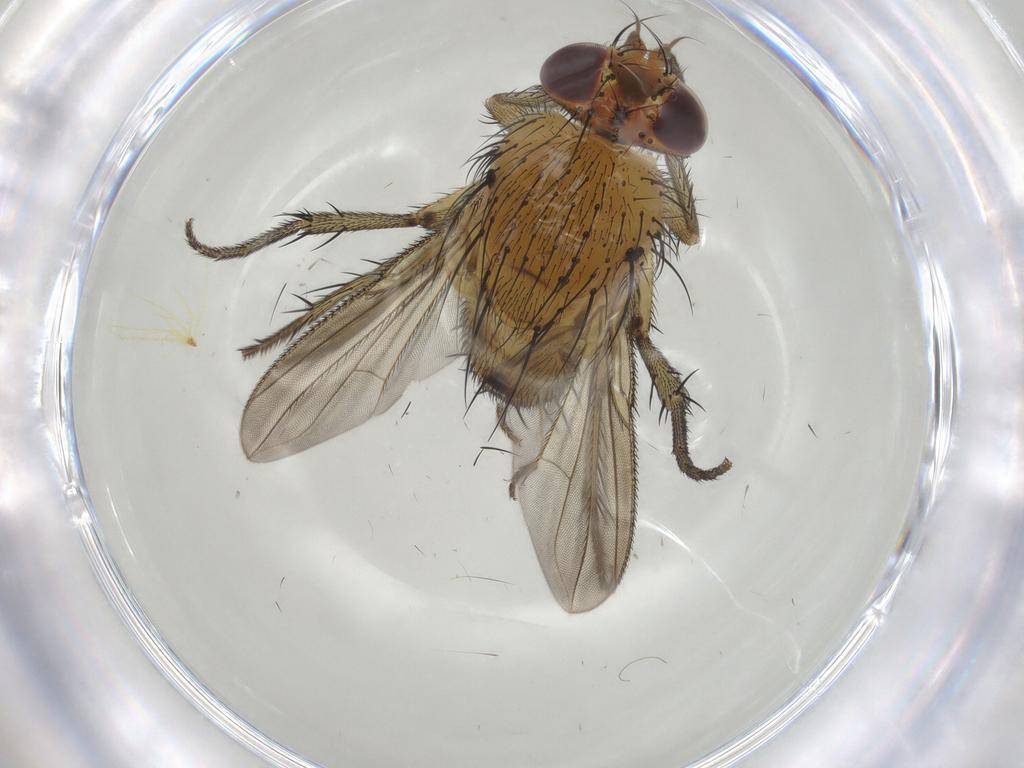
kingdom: Animalia
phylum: Arthropoda
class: Insecta
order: Diptera
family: Tachinidae
